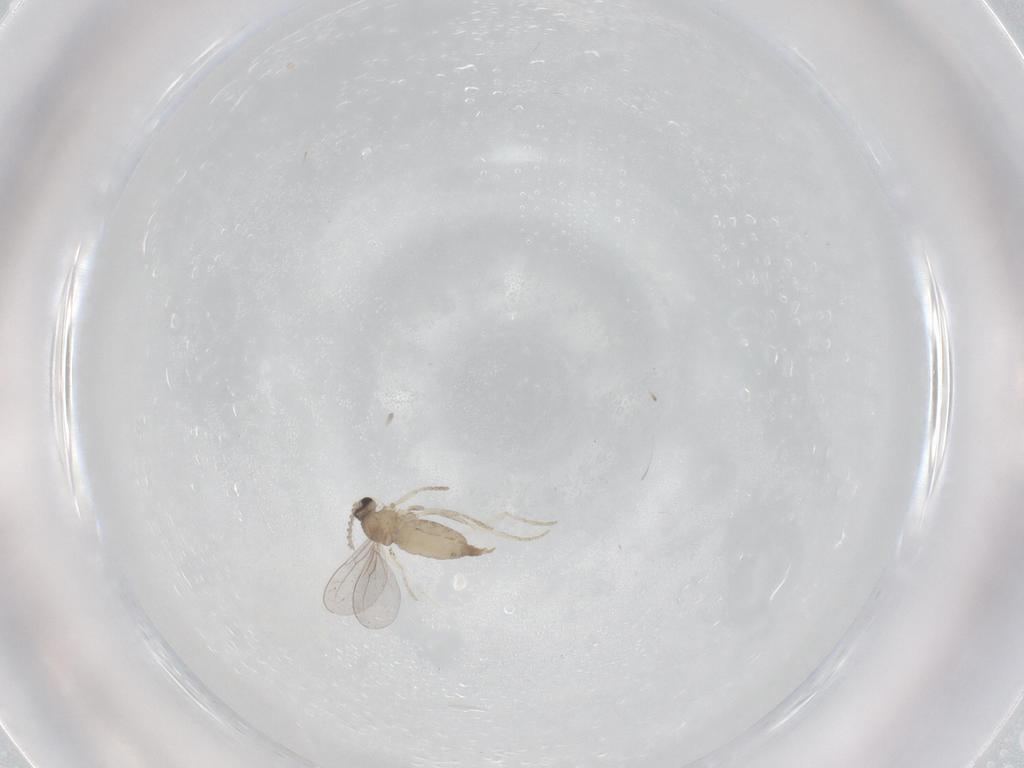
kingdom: Animalia
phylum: Arthropoda
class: Insecta
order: Diptera
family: Cecidomyiidae
